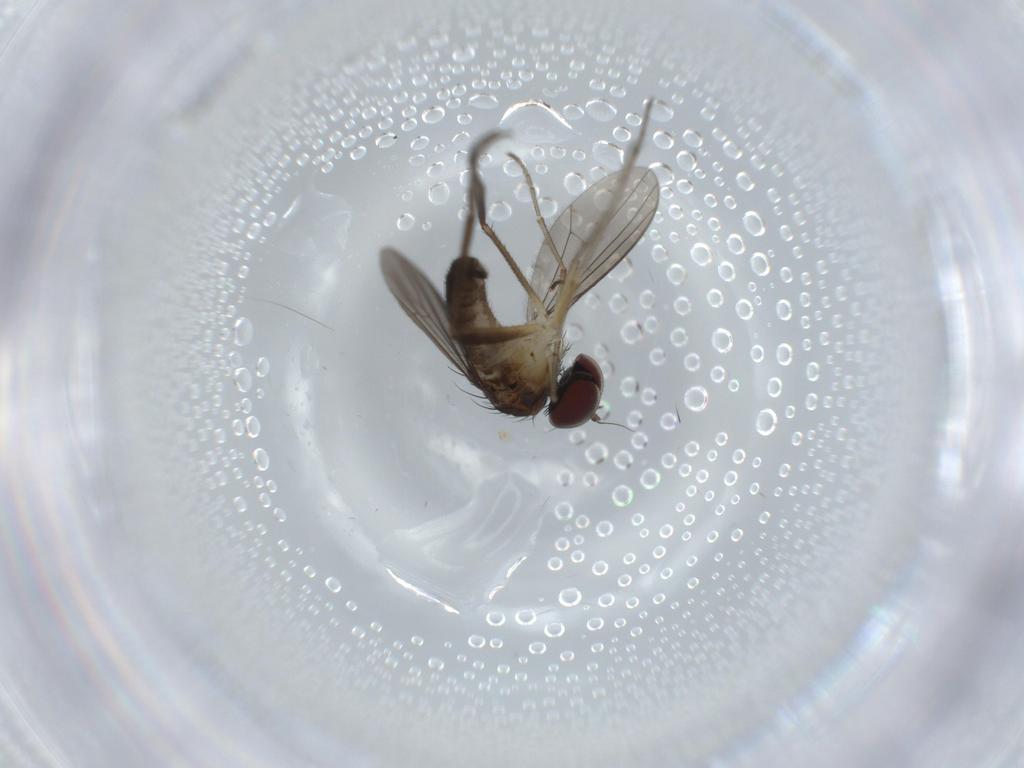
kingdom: Animalia
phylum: Arthropoda
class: Insecta
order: Diptera
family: Dolichopodidae
